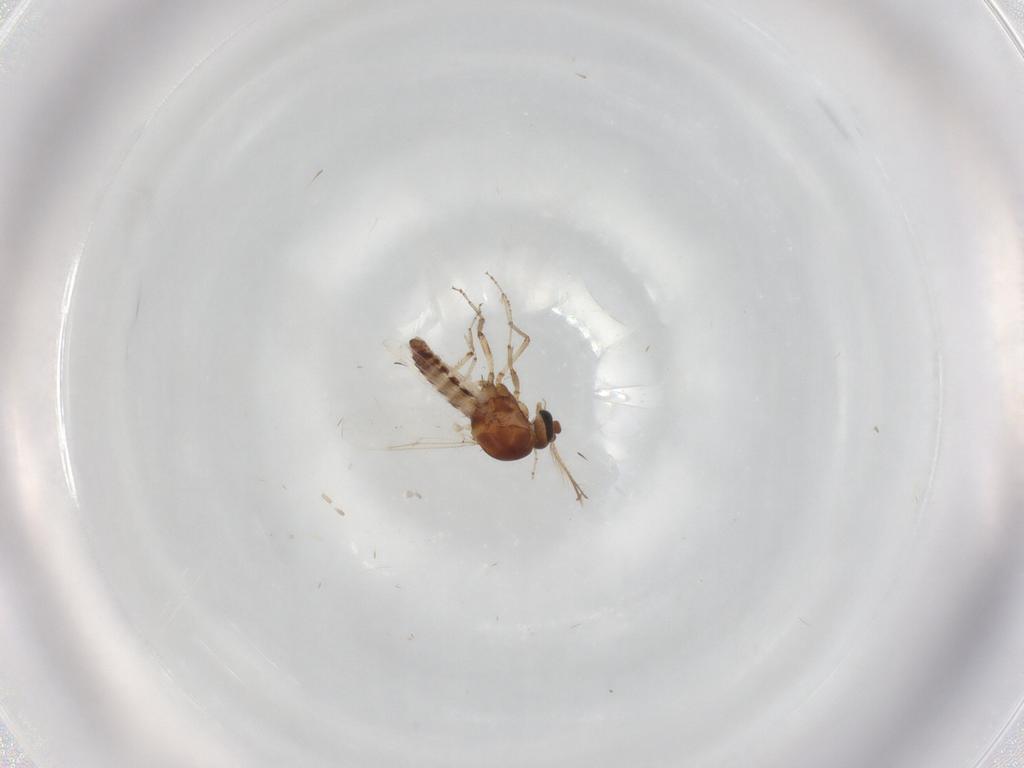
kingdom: Animalia
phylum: Arthropoda
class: Insecta
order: Diptera
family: Ceratopogonidae
